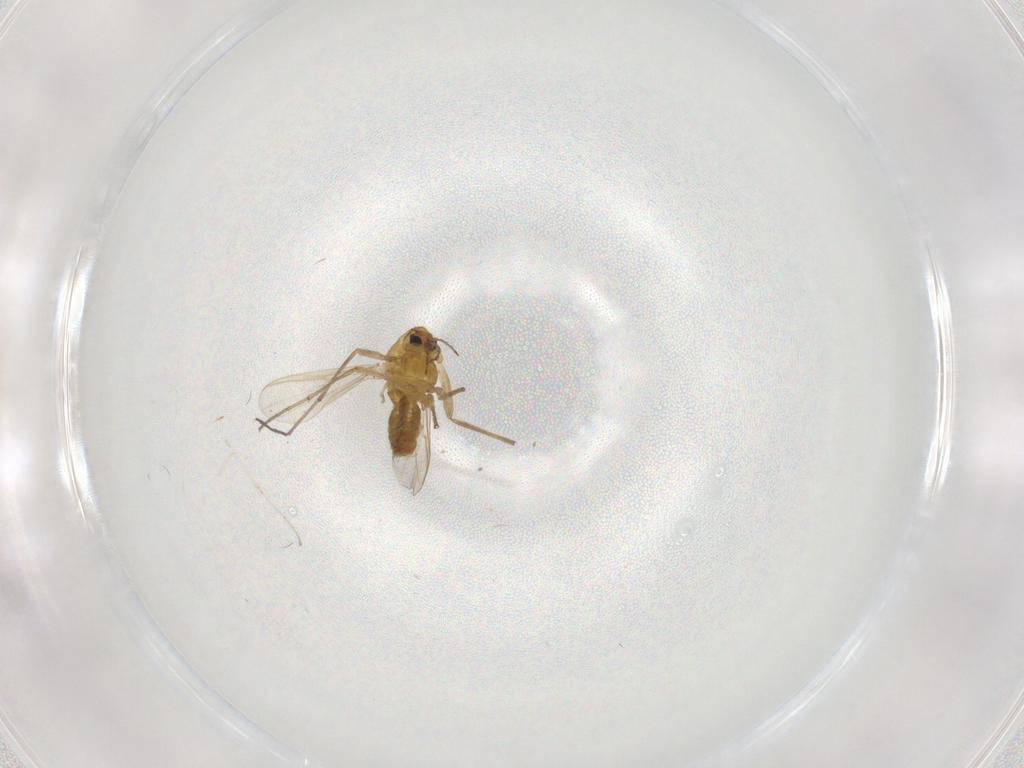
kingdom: Animalia
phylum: Arthropoda
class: Insecta
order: Diptera
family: Chironomidae
